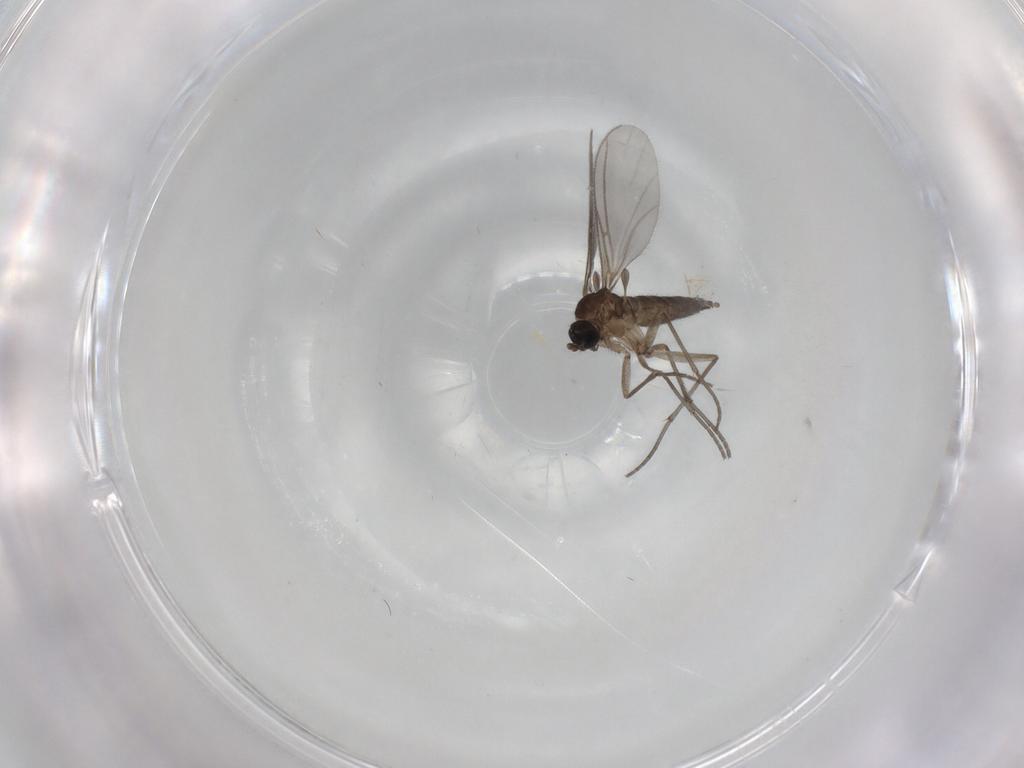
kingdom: Animalia
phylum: Arthropoda
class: Insecta
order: Diptera
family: Sciaridae
